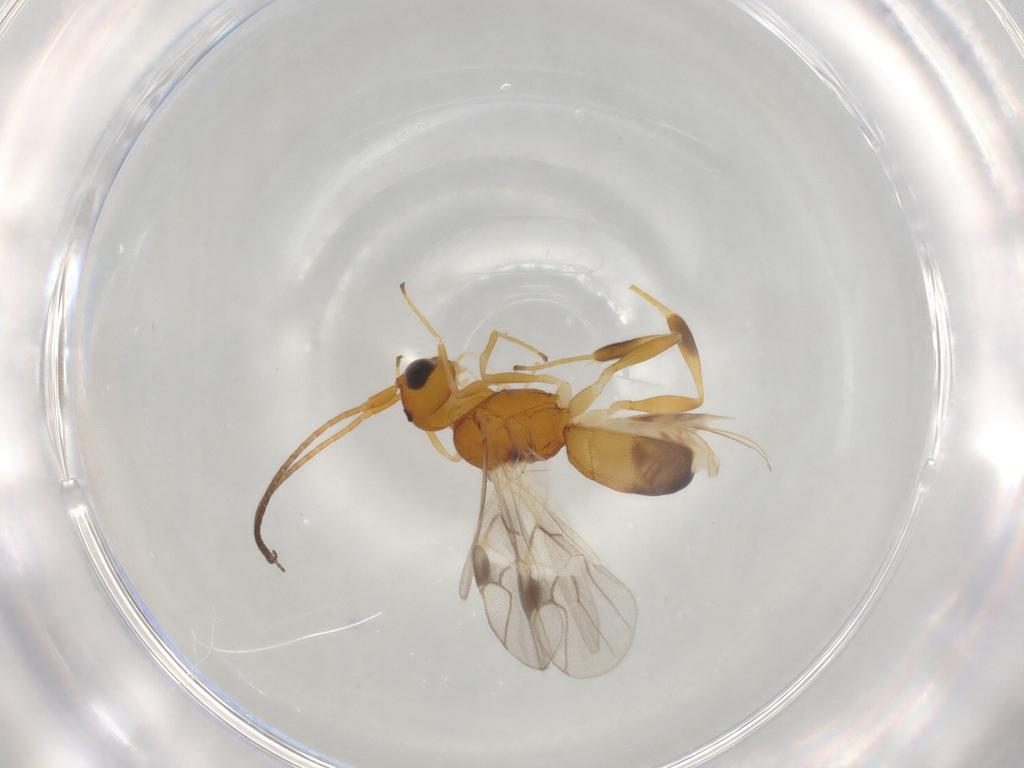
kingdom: Animalia
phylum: Arthropoda
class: Insecta
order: Hymenoptera
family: Braconidae
